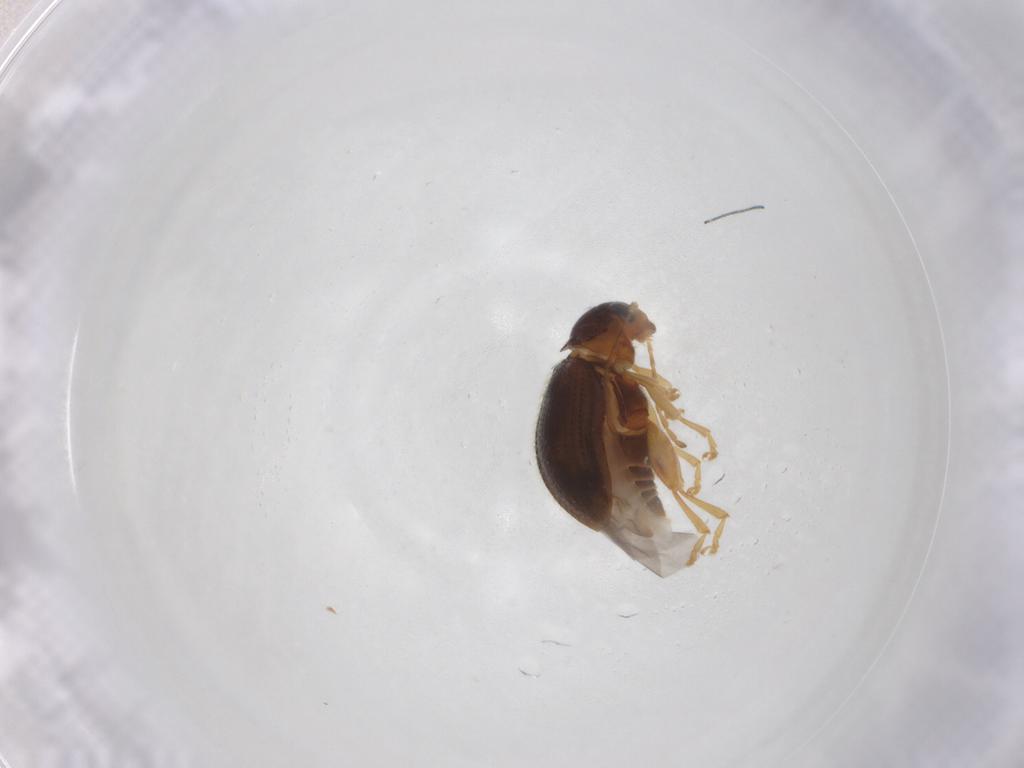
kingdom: Animalia
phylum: Arthropoda
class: Insecta
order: Coleoptera
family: Chrysomelidae
